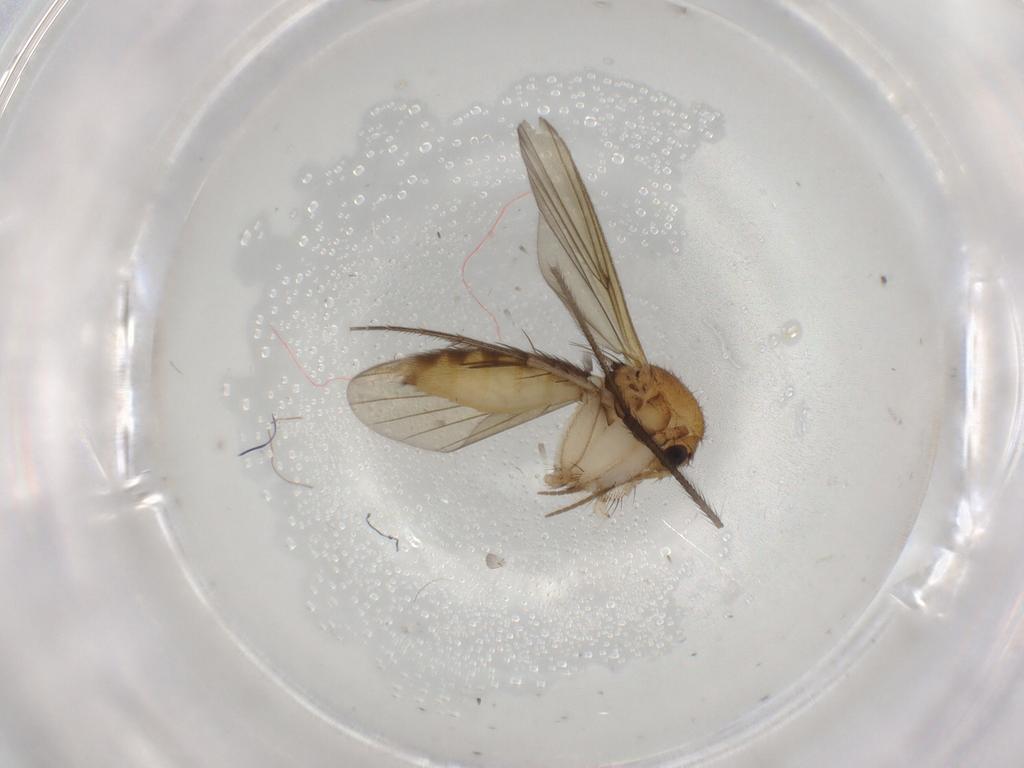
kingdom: Animalia
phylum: Arthropoda
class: Insecta
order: Diptera
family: Mycetophilidae
